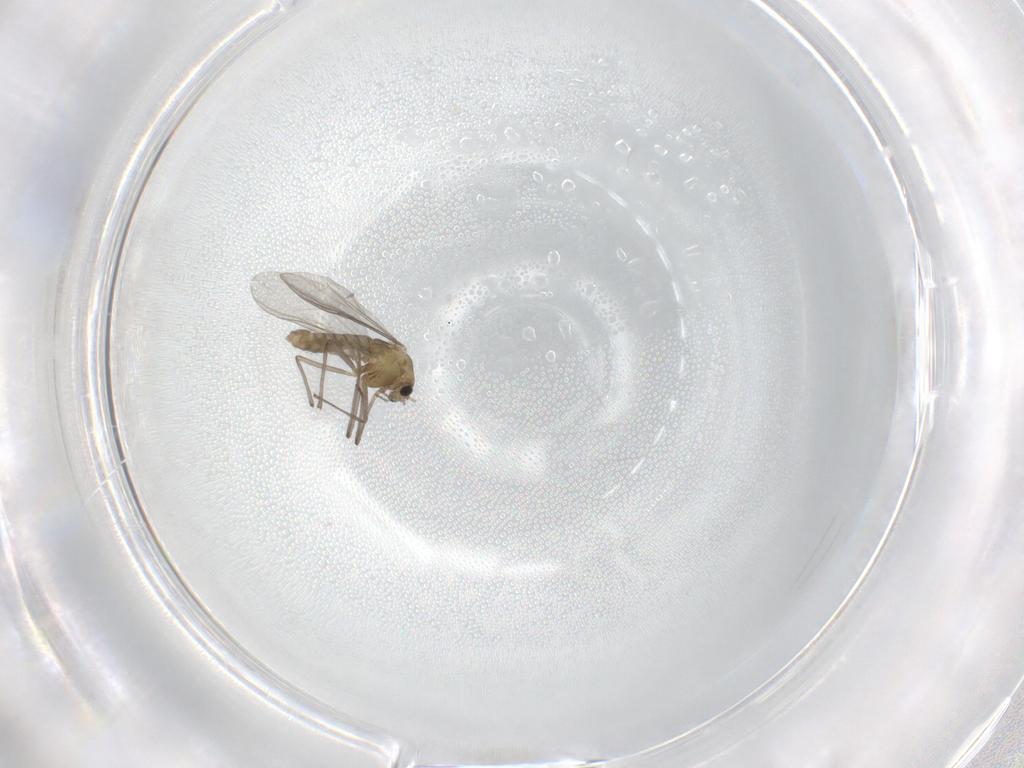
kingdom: Animalia
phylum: Arthropoda
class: Insecta
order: Diptera
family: Chironomidae
